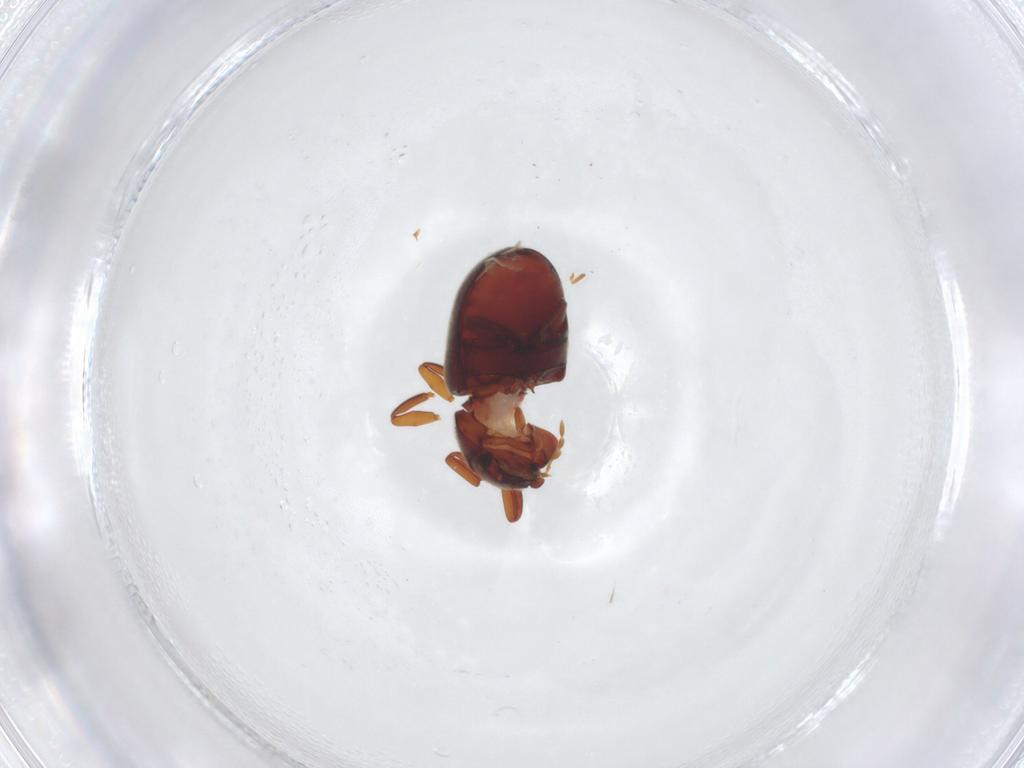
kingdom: Animalia
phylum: Arthropoda
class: Insecta
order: Coleoptera
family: Ptinidae
